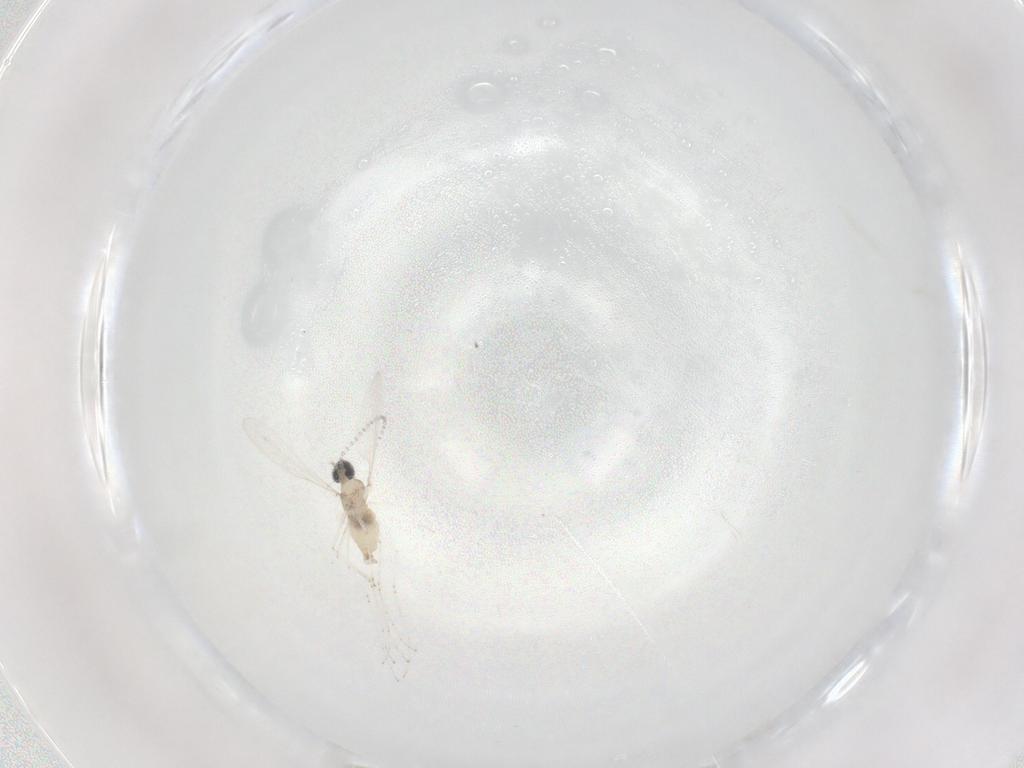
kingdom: Animalia
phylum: Arthropoda
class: Insecta
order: Diptera
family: Cecidomyiidae
